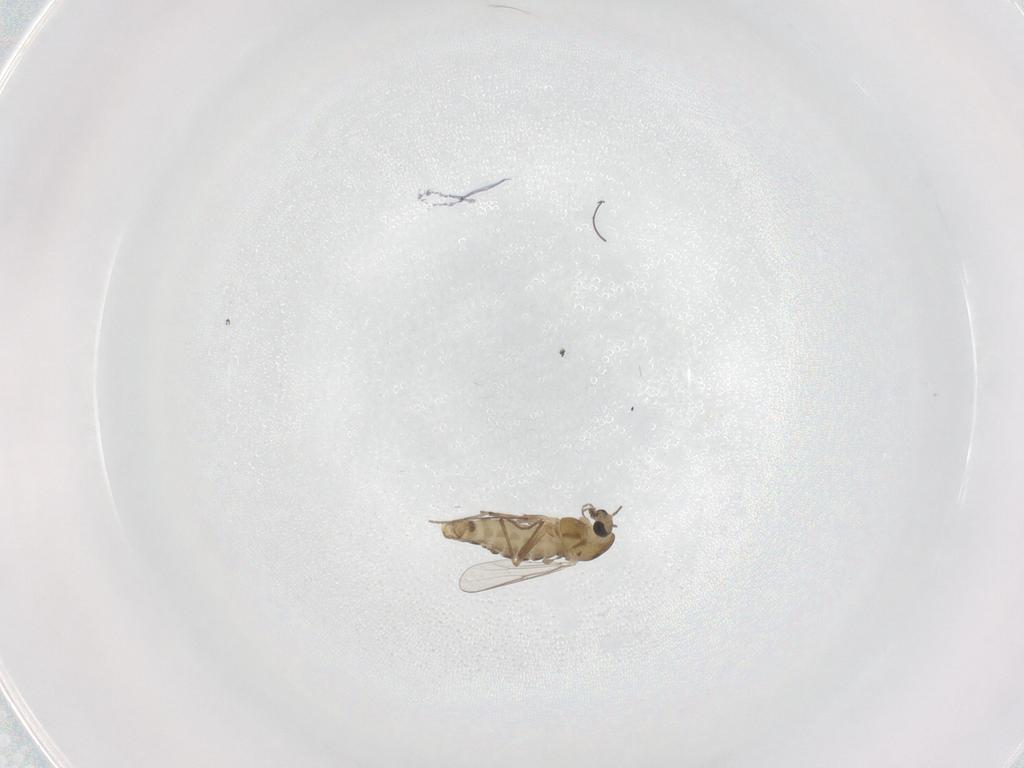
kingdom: Animalia
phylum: Arthropoda
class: Insecta
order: Diptera
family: Chironomidae
